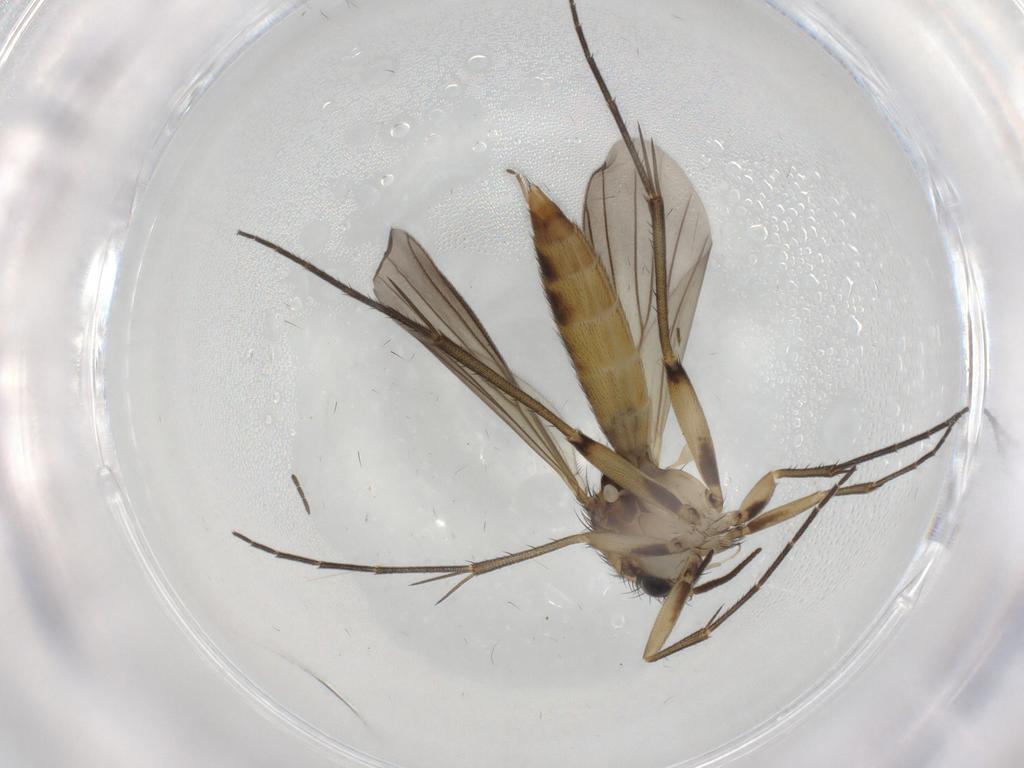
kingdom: Animalia
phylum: Arthropoda
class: Insecta
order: Diptera
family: Mycetophilidae
